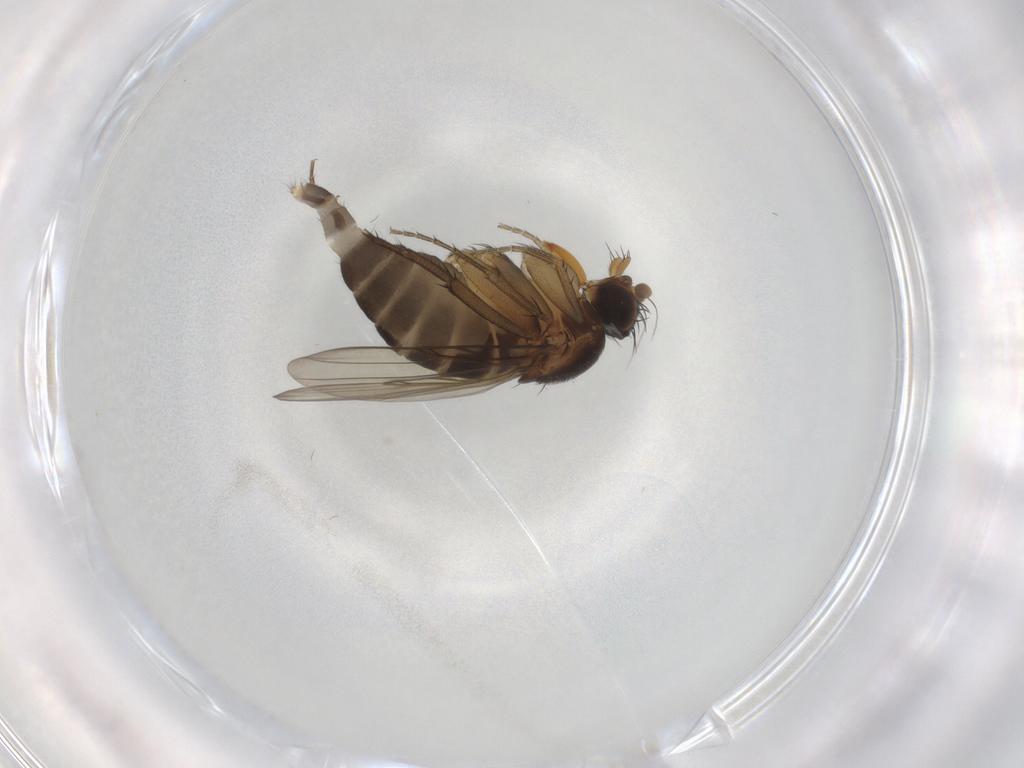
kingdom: Animalia
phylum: Arthropoda
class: Insecta
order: Diptera
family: Phoridae
